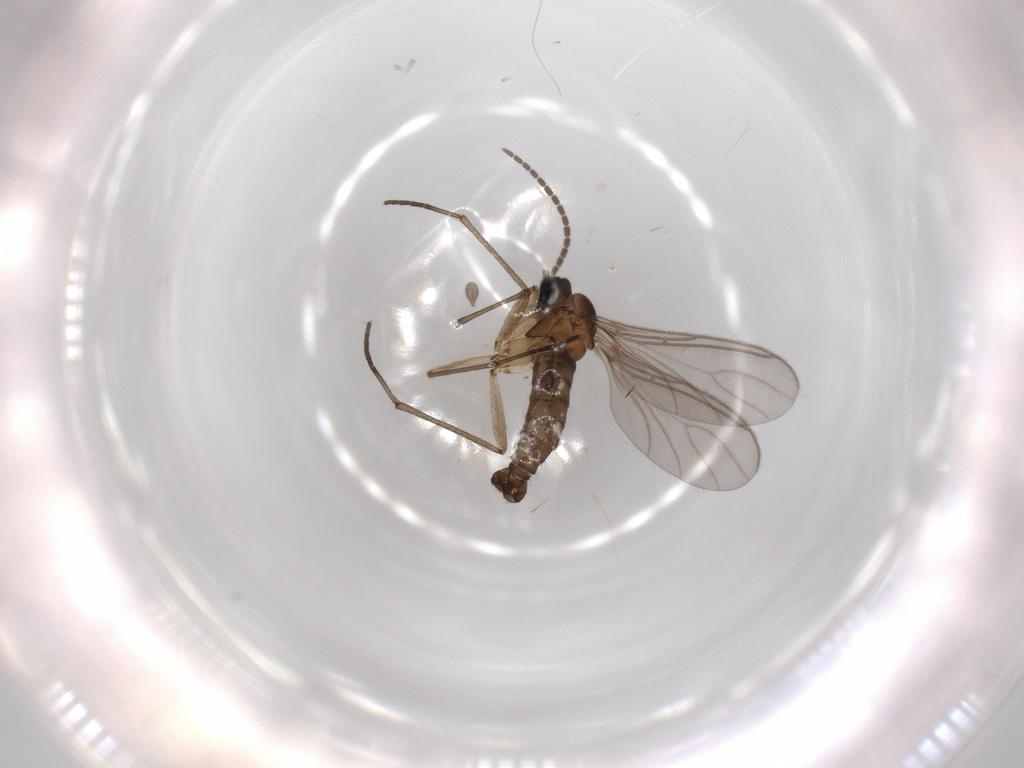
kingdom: Animalia
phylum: Arthropoda
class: Insecta
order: Diptera
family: Sciaridae
